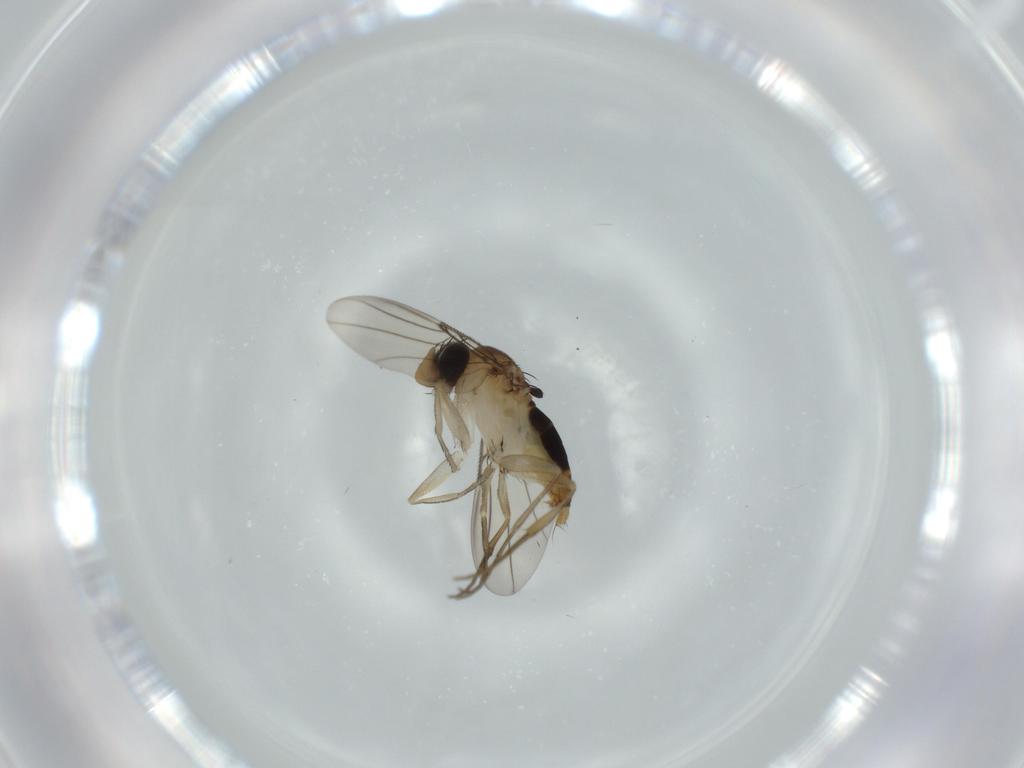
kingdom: Animalia
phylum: Arthropoda
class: Insecta
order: Diptera
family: Phoridae
